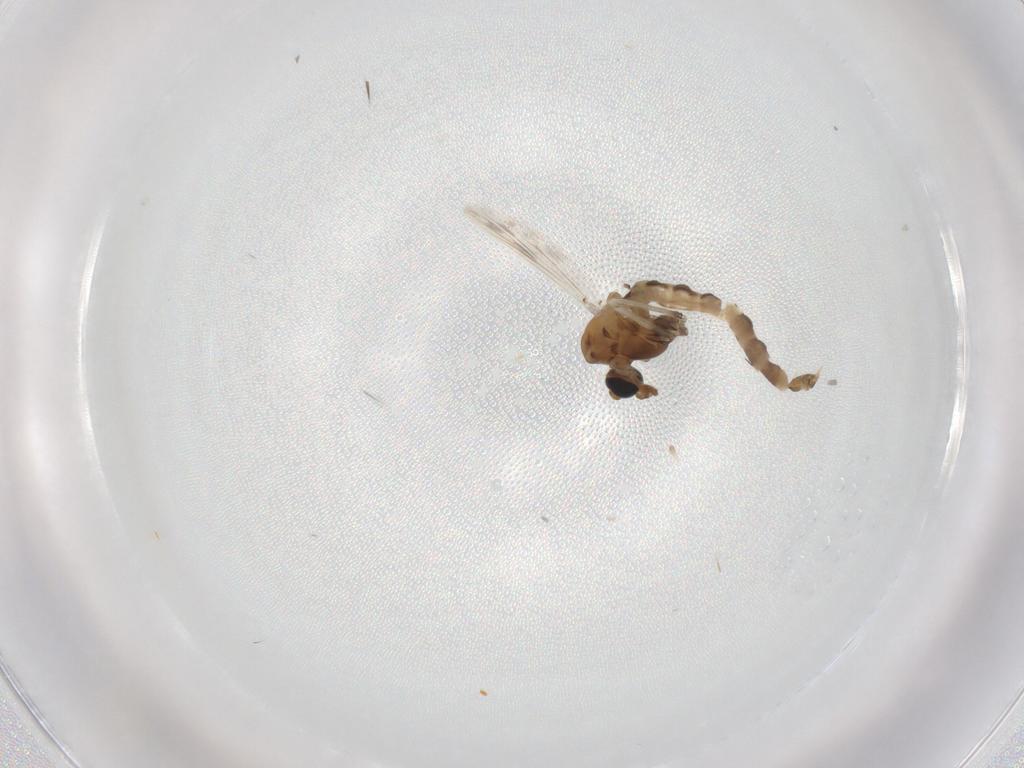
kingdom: Animalia
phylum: Arthropoda
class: Insecta
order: Diptera
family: Chironomidae
